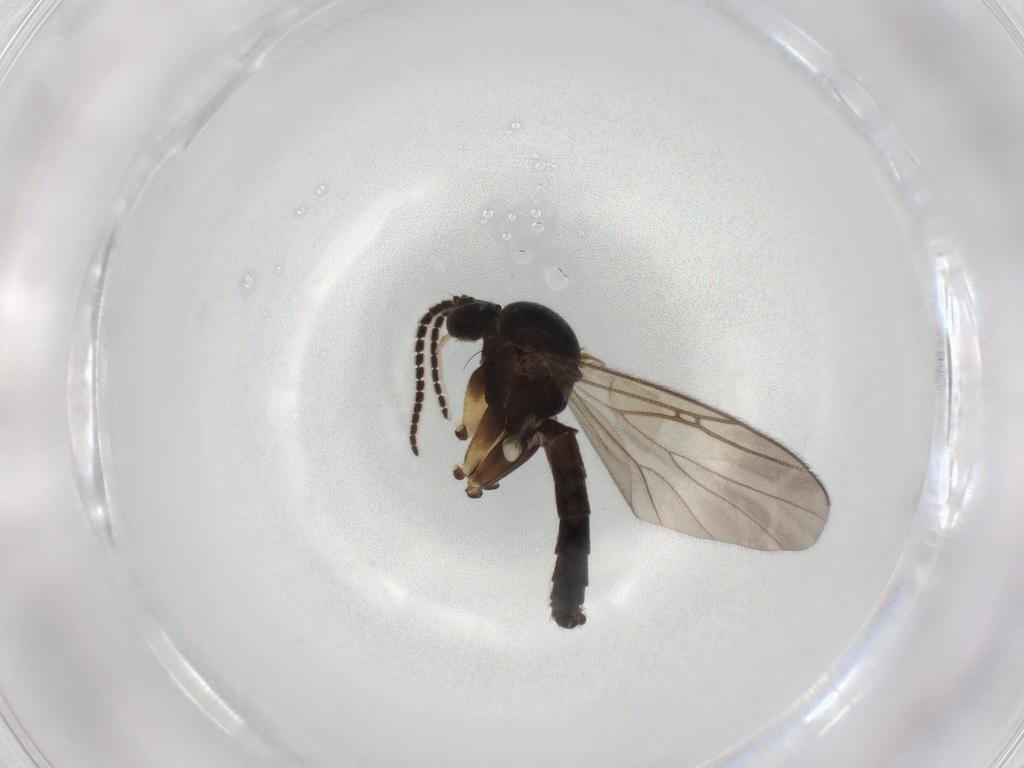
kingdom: Animalia
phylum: Arthropoda
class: Insecta
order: Diptera
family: Mycetophilidae
